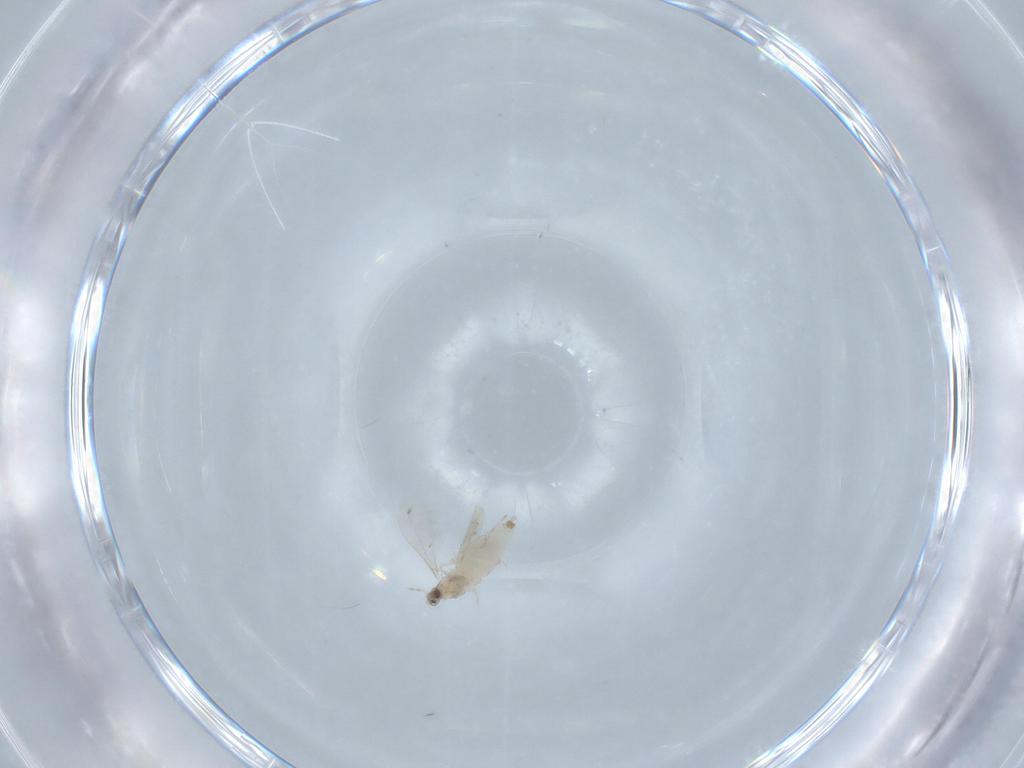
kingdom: Animalia
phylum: Arthropoda
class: Insecta
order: Diptera
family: Cecidomyiidae
